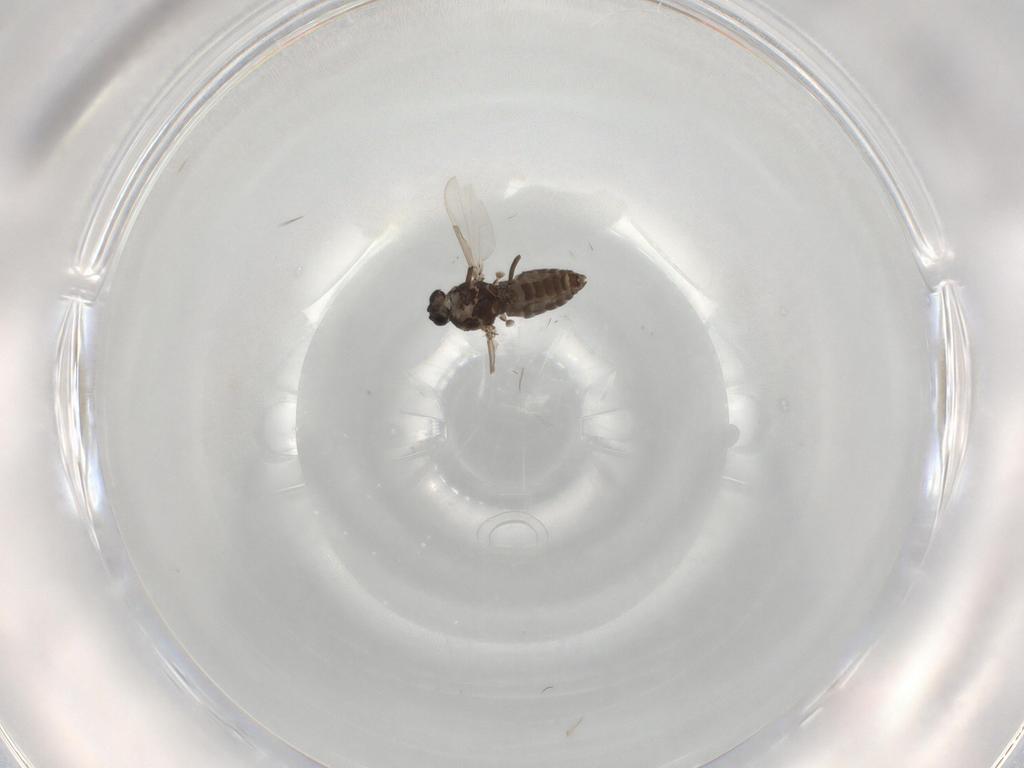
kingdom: Animalia
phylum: Arthropoda
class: Insecta
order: Diptera
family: Ceratopogonidae
